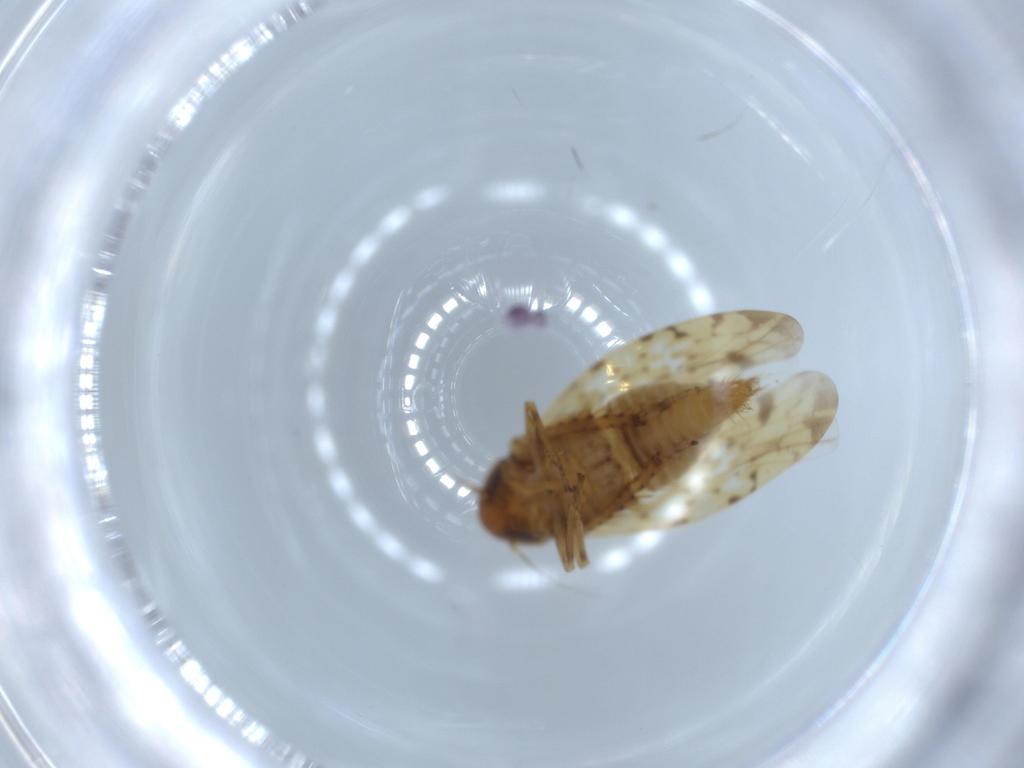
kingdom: Animalia
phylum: Arthropoda
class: Insecta
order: Hemiptera
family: Cicadellidae
